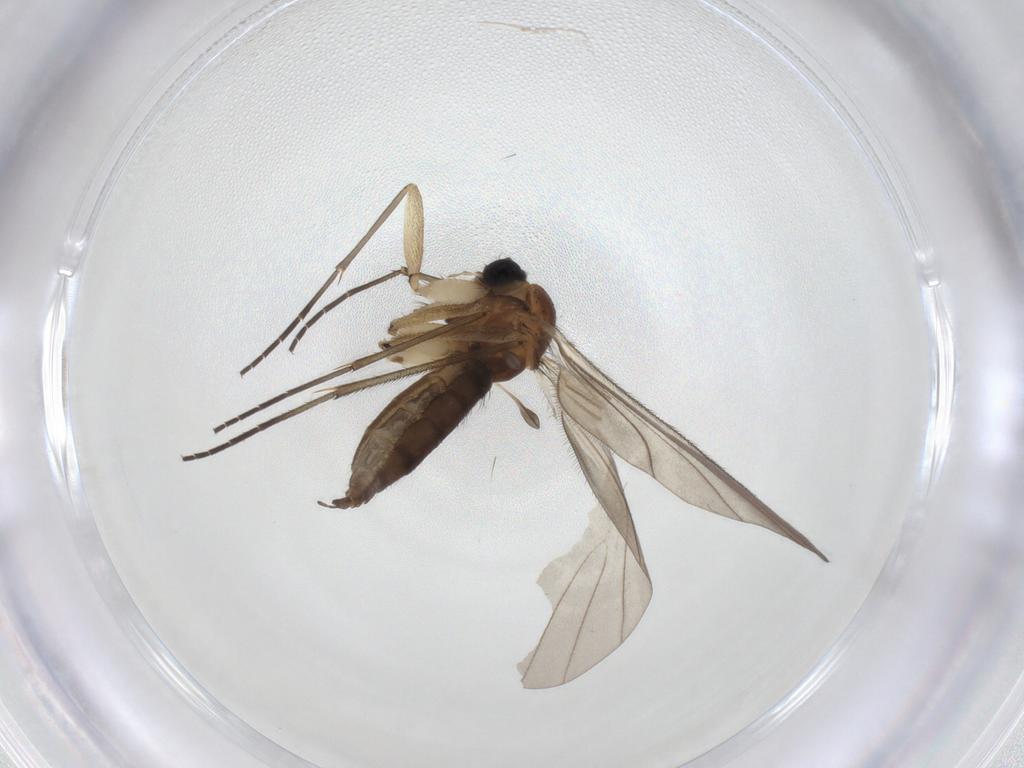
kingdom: Animalia
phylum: Arthropoda
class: Insecta
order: Diptera
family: Sciaridae
